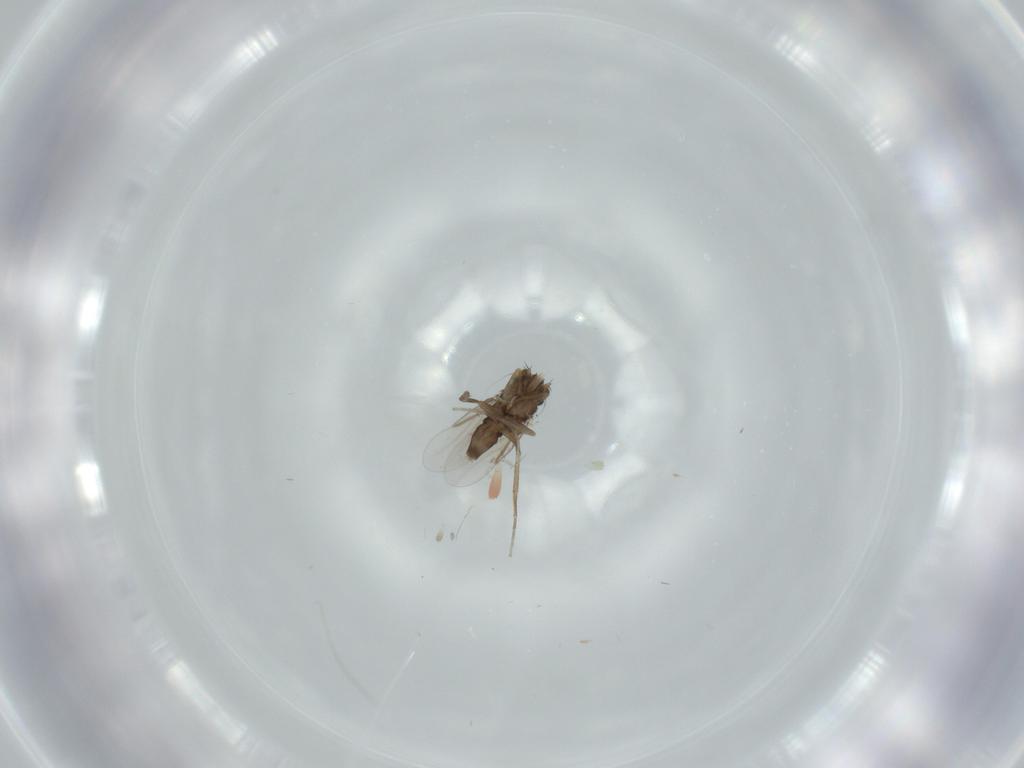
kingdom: Animalia
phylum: Arthropoda
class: Insecta
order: Diptera
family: Phoridae
